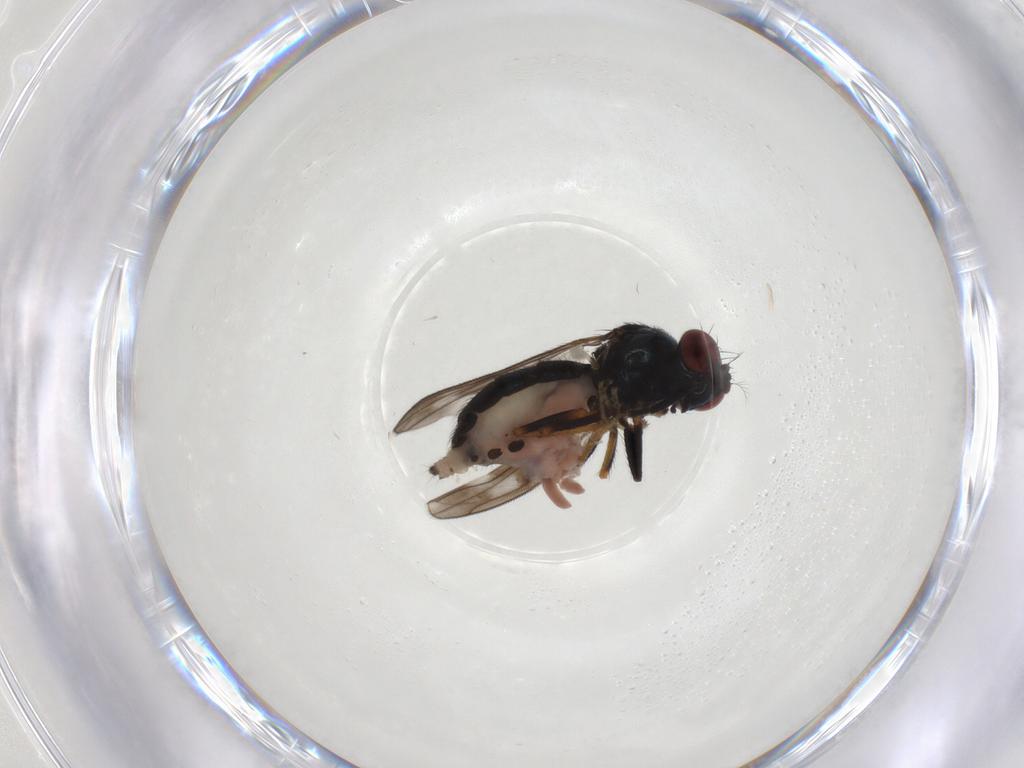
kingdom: Animalia
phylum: Arthropoda
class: Insecta
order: Diptera
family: Ephydridae
